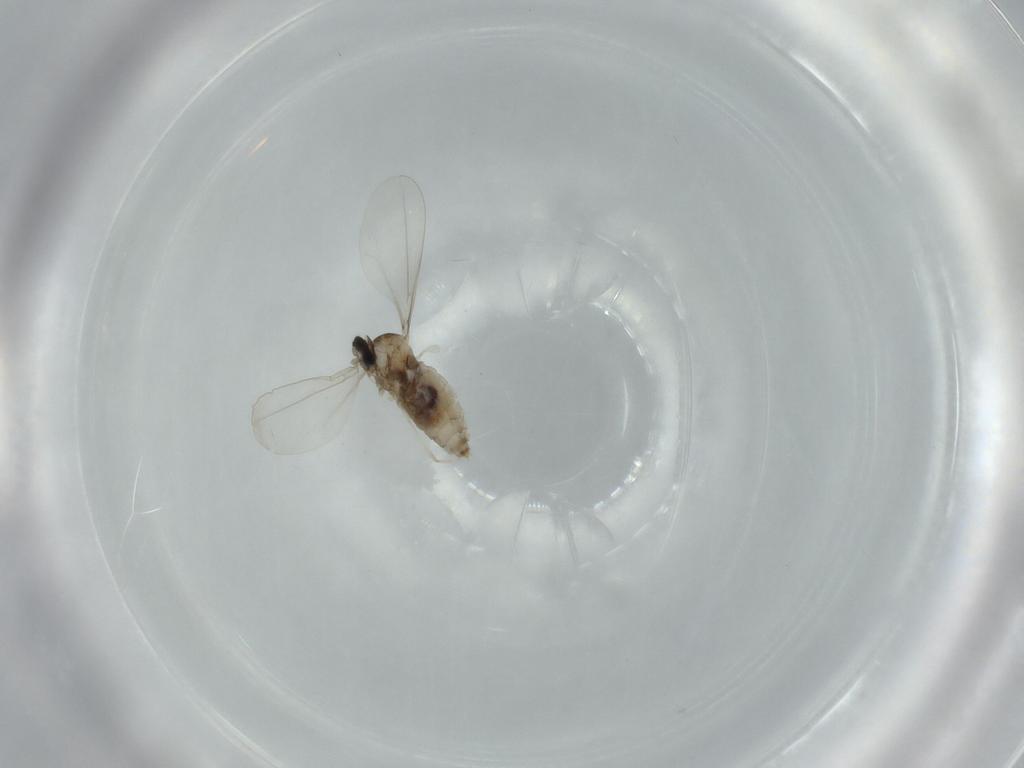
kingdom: Animalia
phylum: Arthropoda
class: Insecta
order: Diptera
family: Cecidomyiidae
